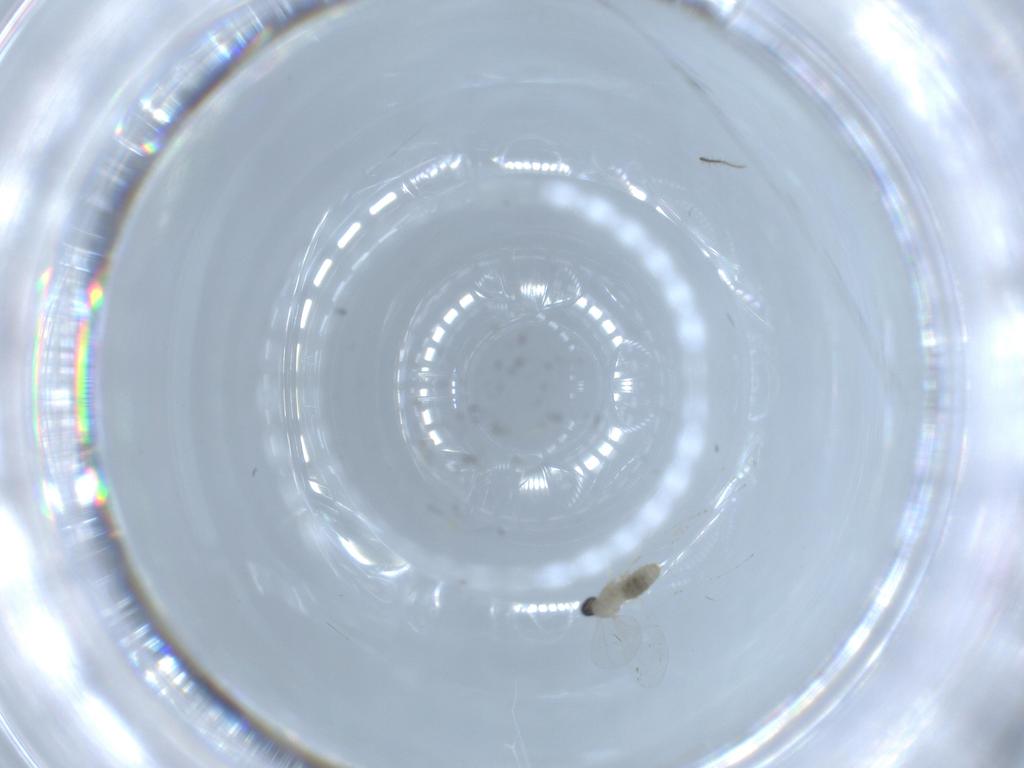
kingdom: Animalia
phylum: Arthropoda
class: Insecta
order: Diptera
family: Cecidomyiidae
